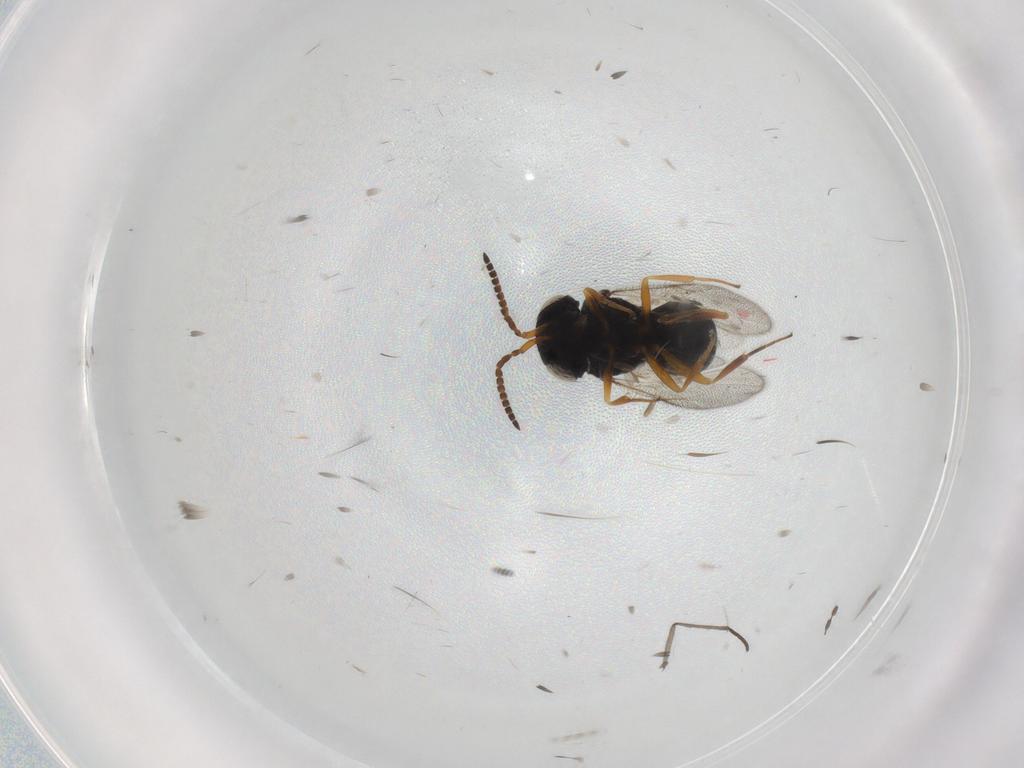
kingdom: Animalia
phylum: Arthropoda
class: Insecta
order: Hymenoptera
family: Scelionidae
